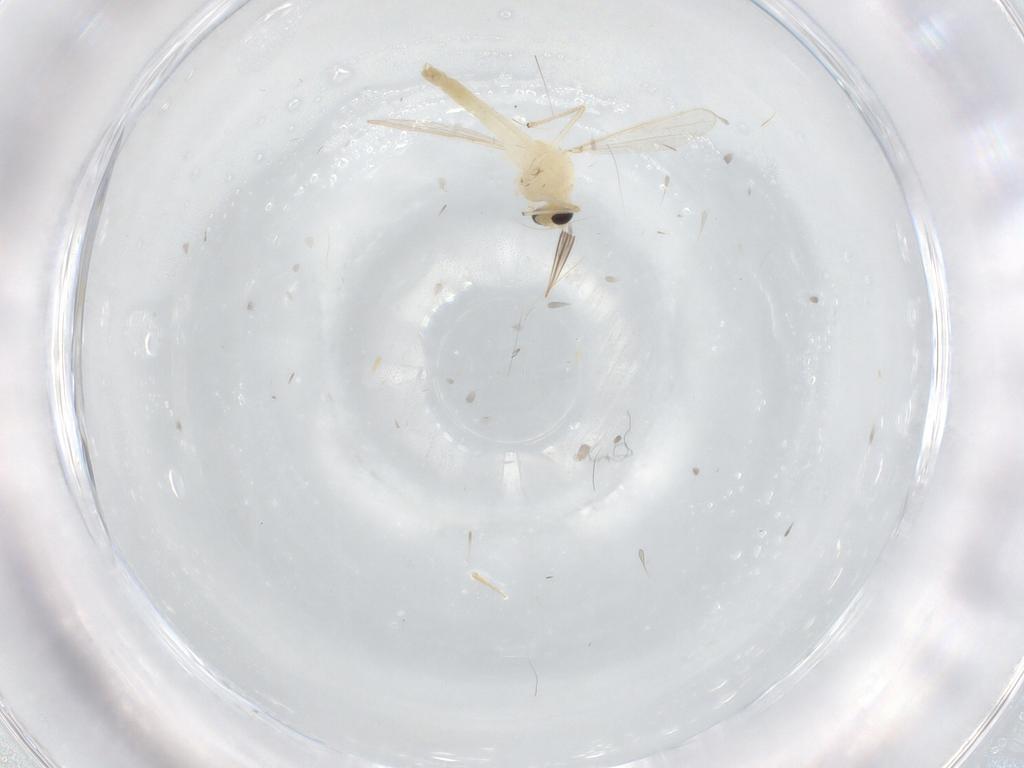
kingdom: Animalia
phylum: Arthropoda
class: Insecta
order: Diptera
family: Chironomidae
